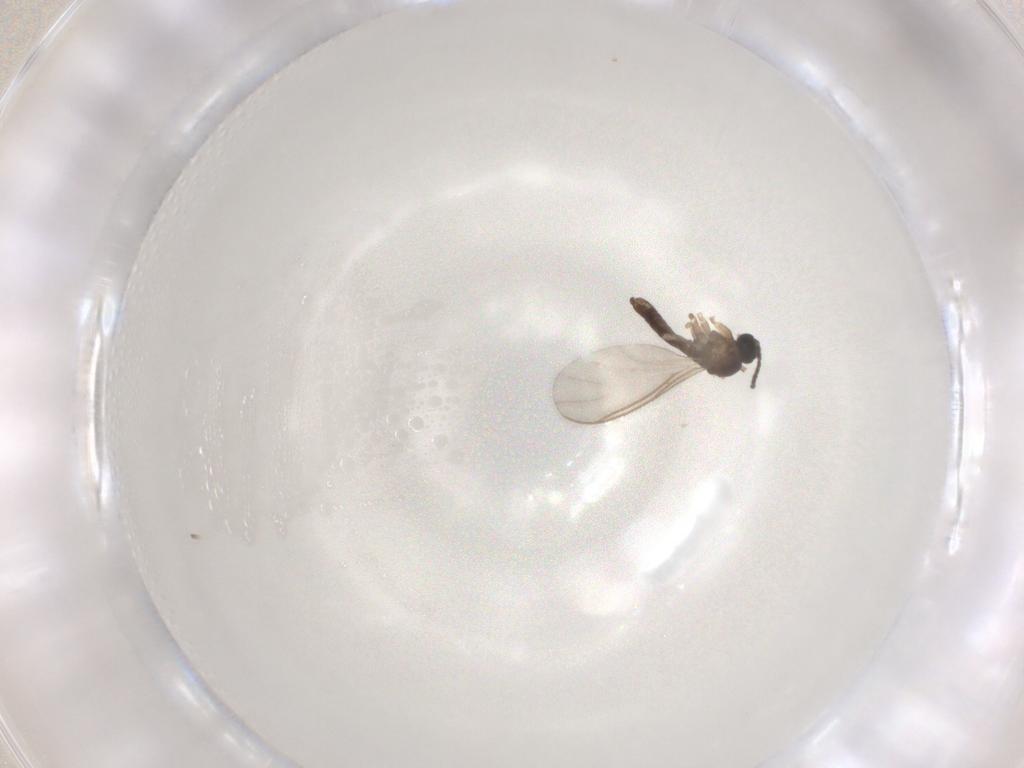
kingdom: Animalia
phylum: Arthropoda
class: Insecta
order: Diptera
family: Sciaridae
